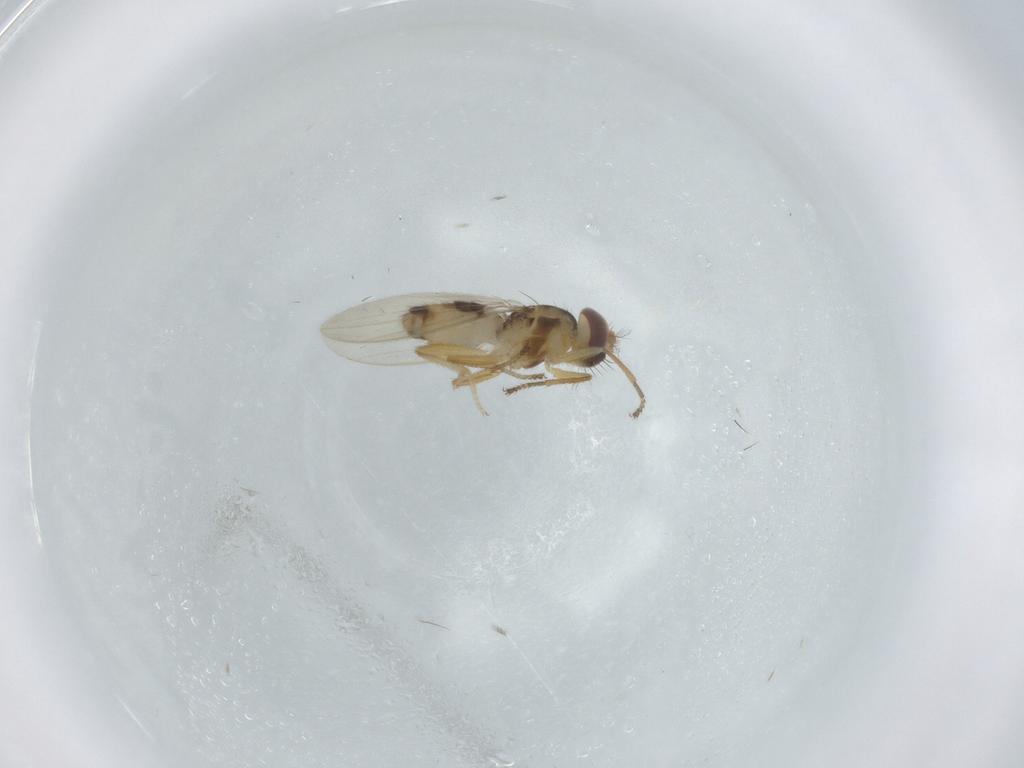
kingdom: Animalia
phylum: Arthropoda
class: Insecta
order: Diptera
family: Periscelididae
